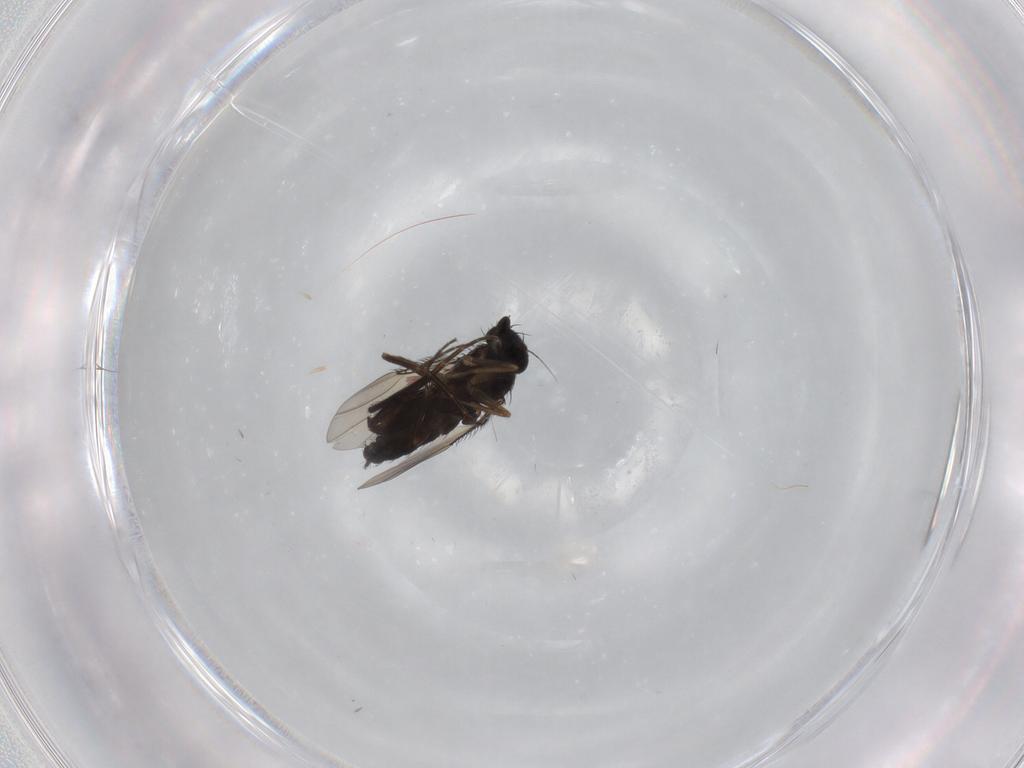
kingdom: Animalia
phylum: Arthropoda
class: Insecta
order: Diptera
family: Phoridae
